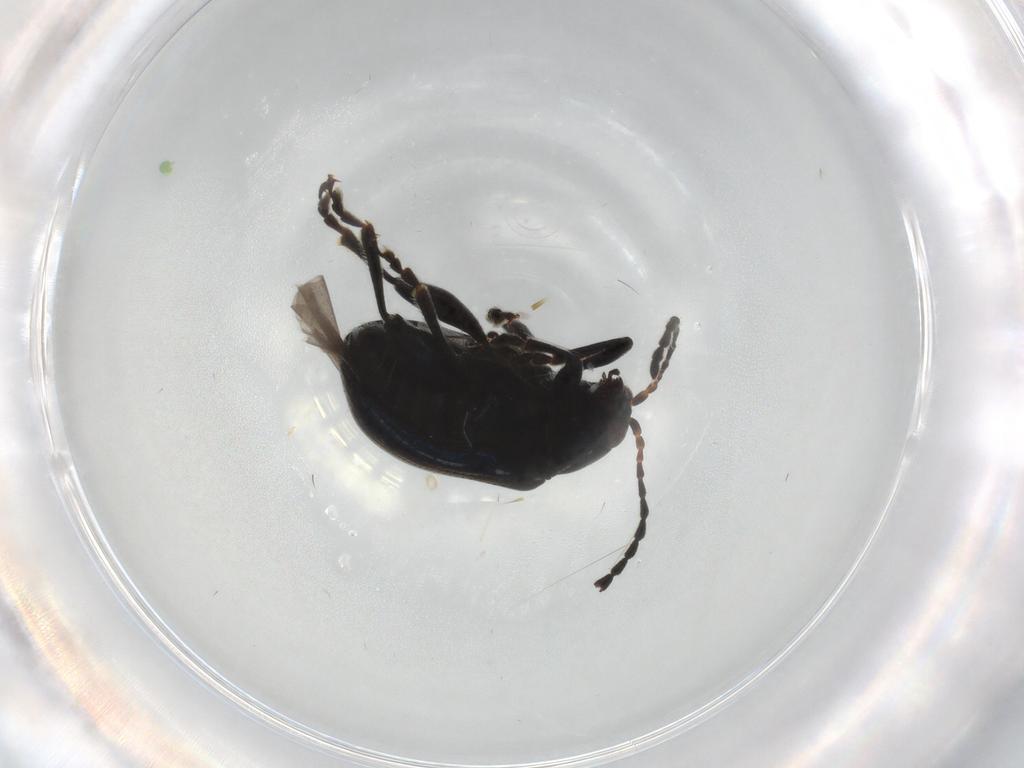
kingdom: Animalia
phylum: Arthropoda
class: Insecta
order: Coleoptera
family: Chrysomelidae
